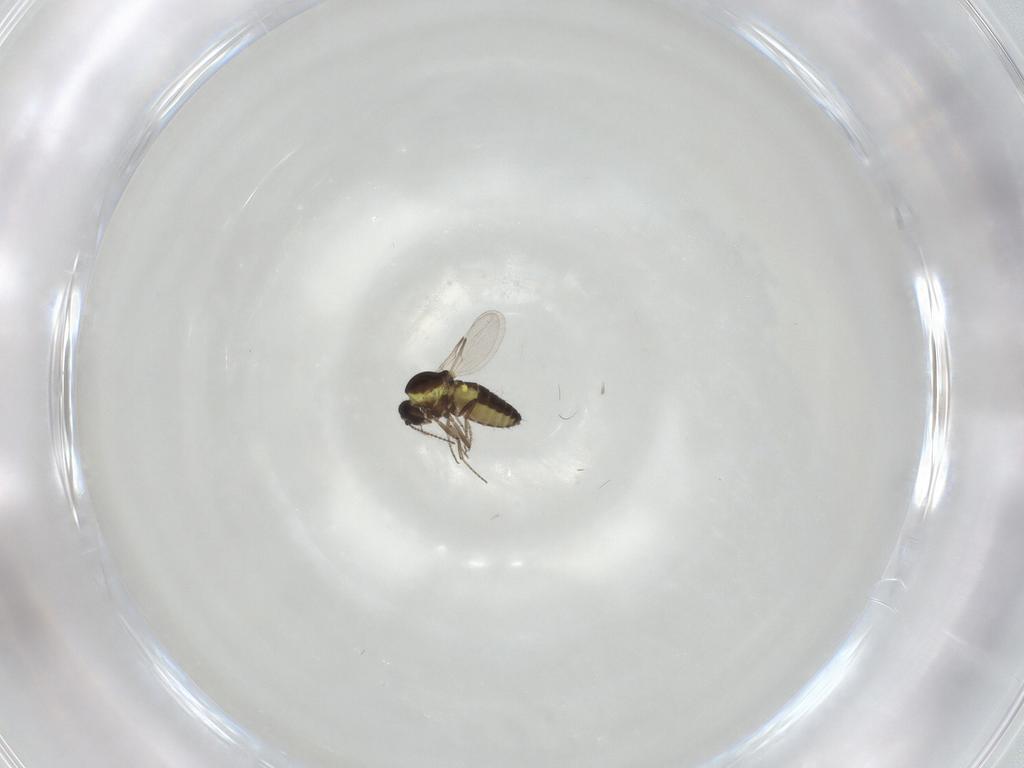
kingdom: Animalia
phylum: Arthropoda
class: Insecta
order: Diptera
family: Ceratopogonidae
